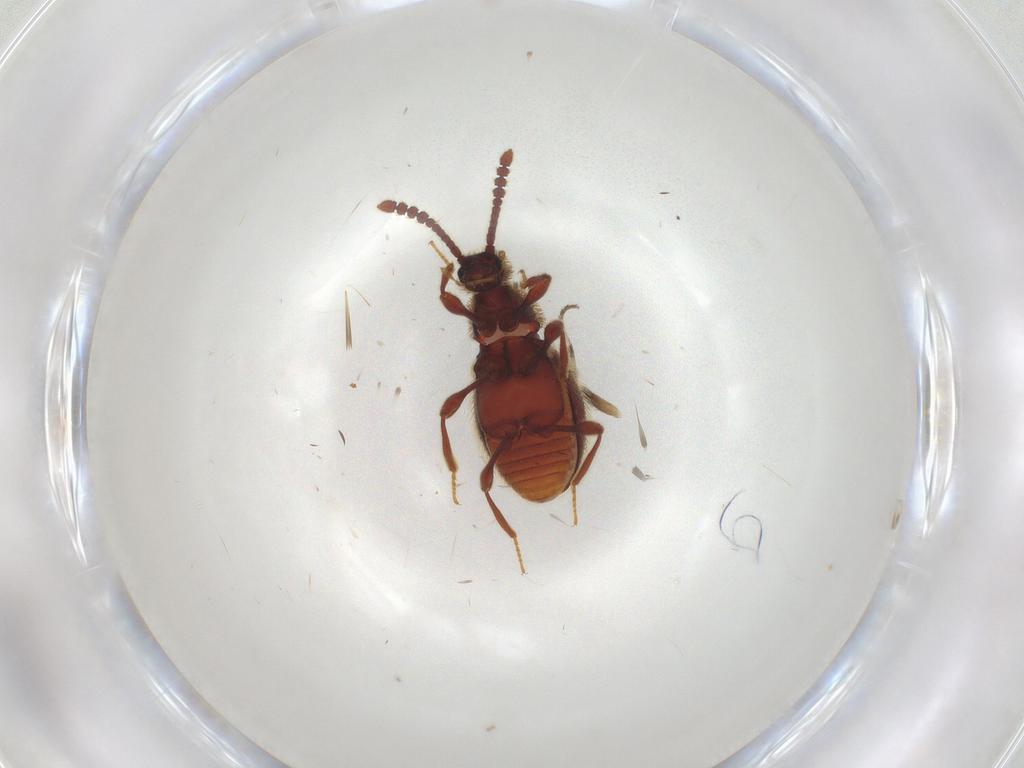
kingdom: Animalia
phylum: Arthropoda
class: Insecta
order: Coleoptera
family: Staphylinidae
